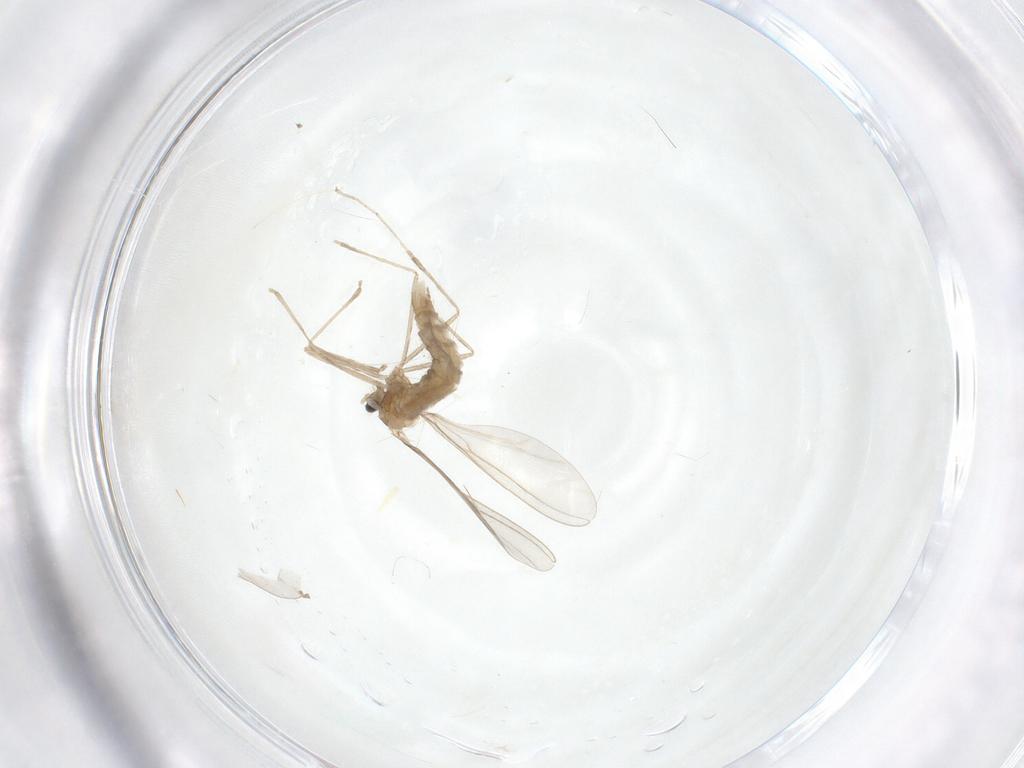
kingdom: Animalia
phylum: Arthropoda
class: Insecta
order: Diptera
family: Cecidomyiidae
